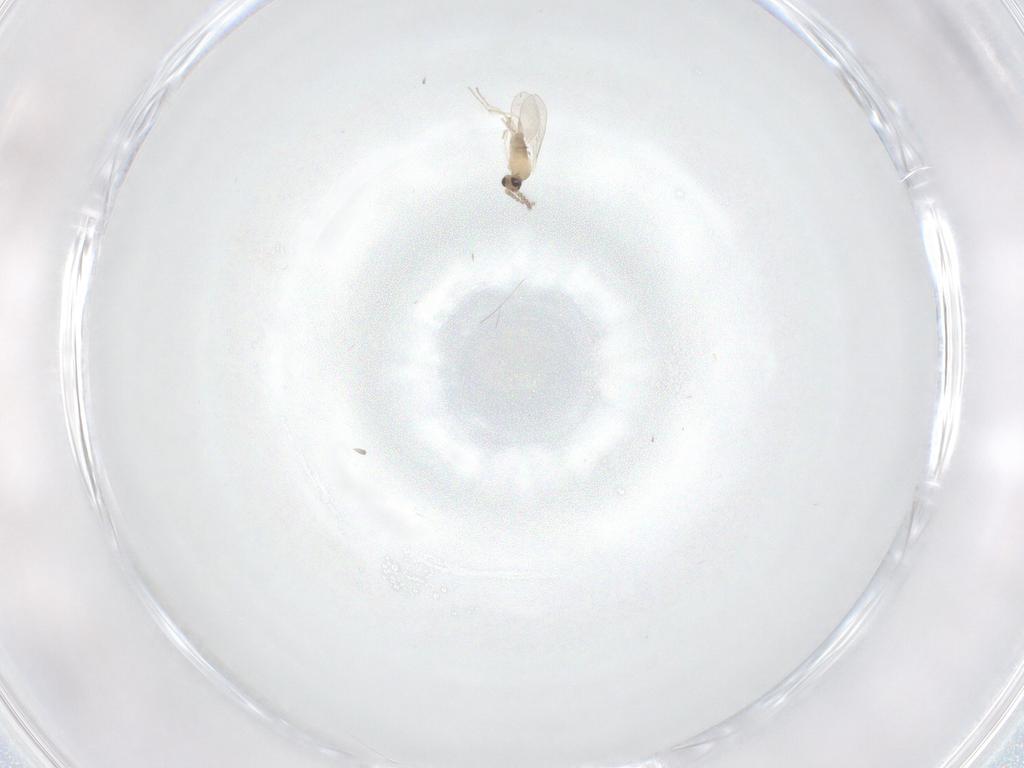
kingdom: Animalia
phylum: Arthropoda
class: Insecta
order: Diptera
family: Cecidomyiidae
